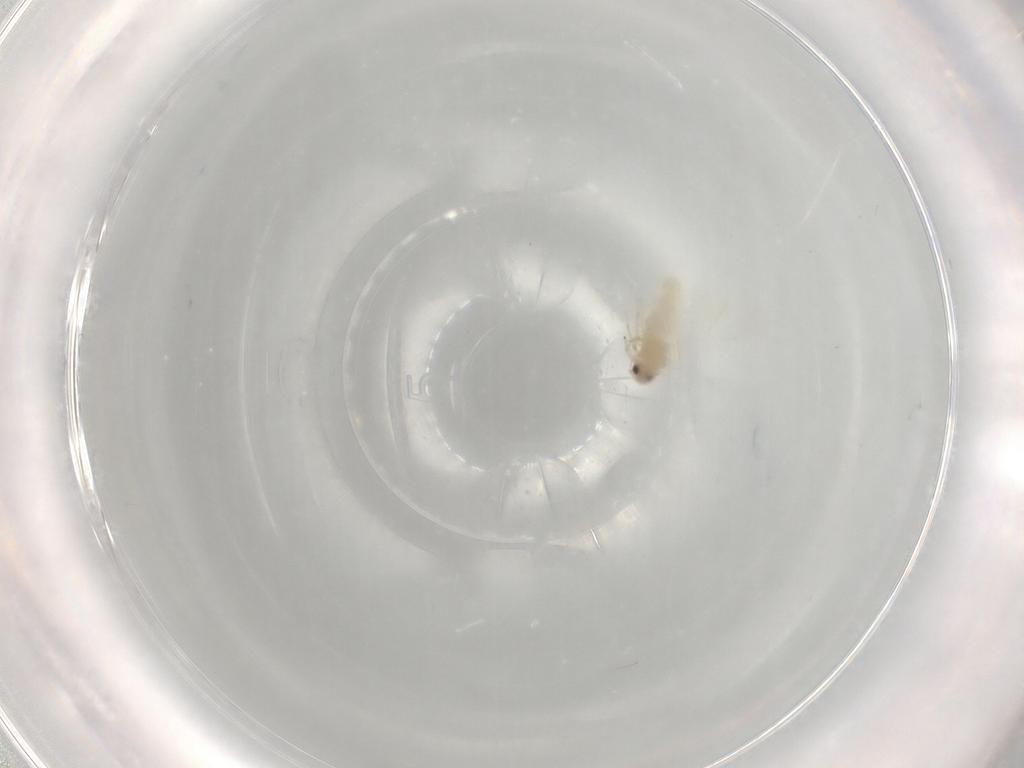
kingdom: Animalia
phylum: Arthropoda
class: Insecta
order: Hemiptera
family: Aleyrodidae
